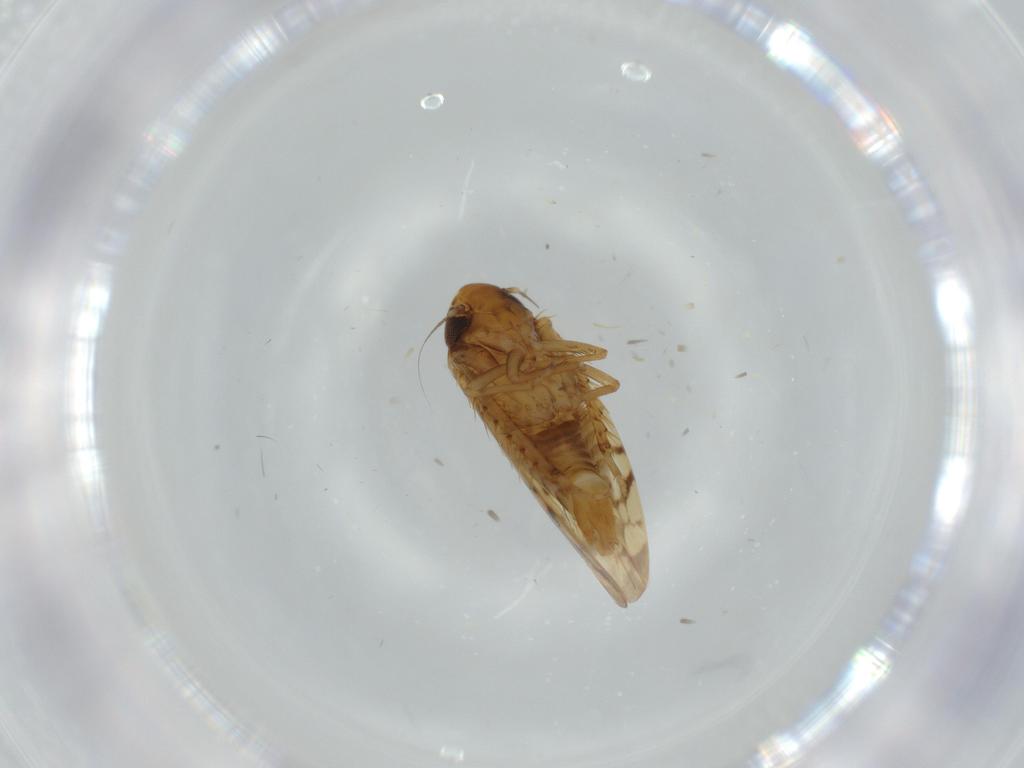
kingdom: Animalia
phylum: Arthropoda
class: Insecta
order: Hemiptera
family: Cicadellidae
